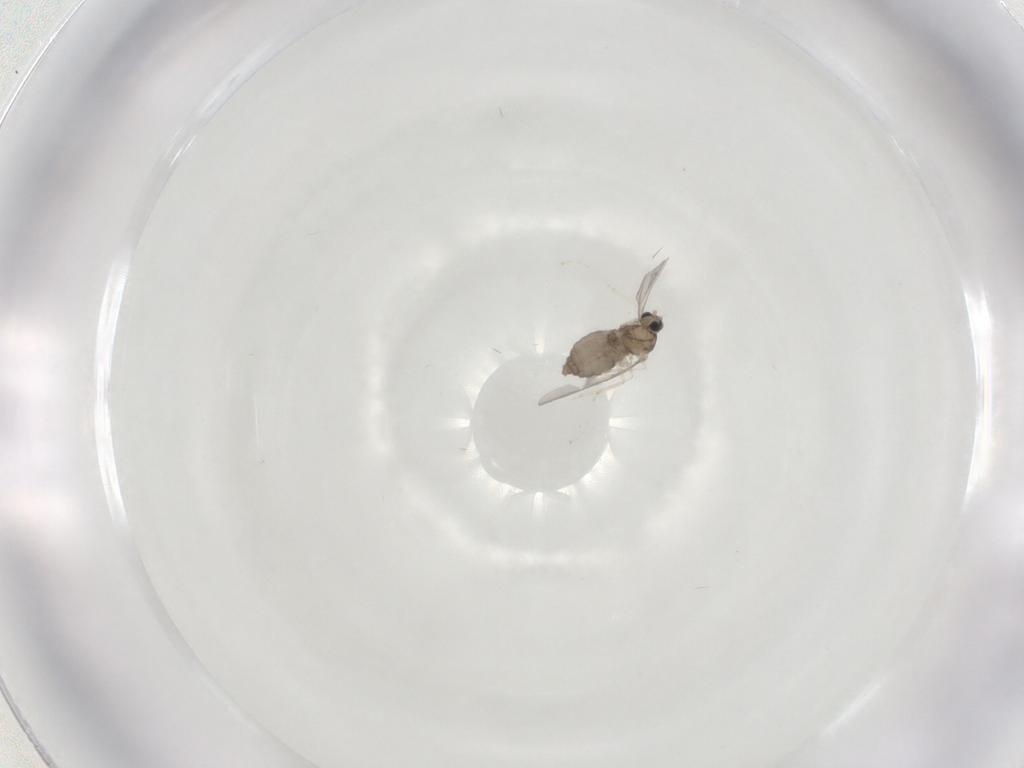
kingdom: Animalia
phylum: Arthropoda
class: Insecta
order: Diptera
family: Cecidomyiidae
